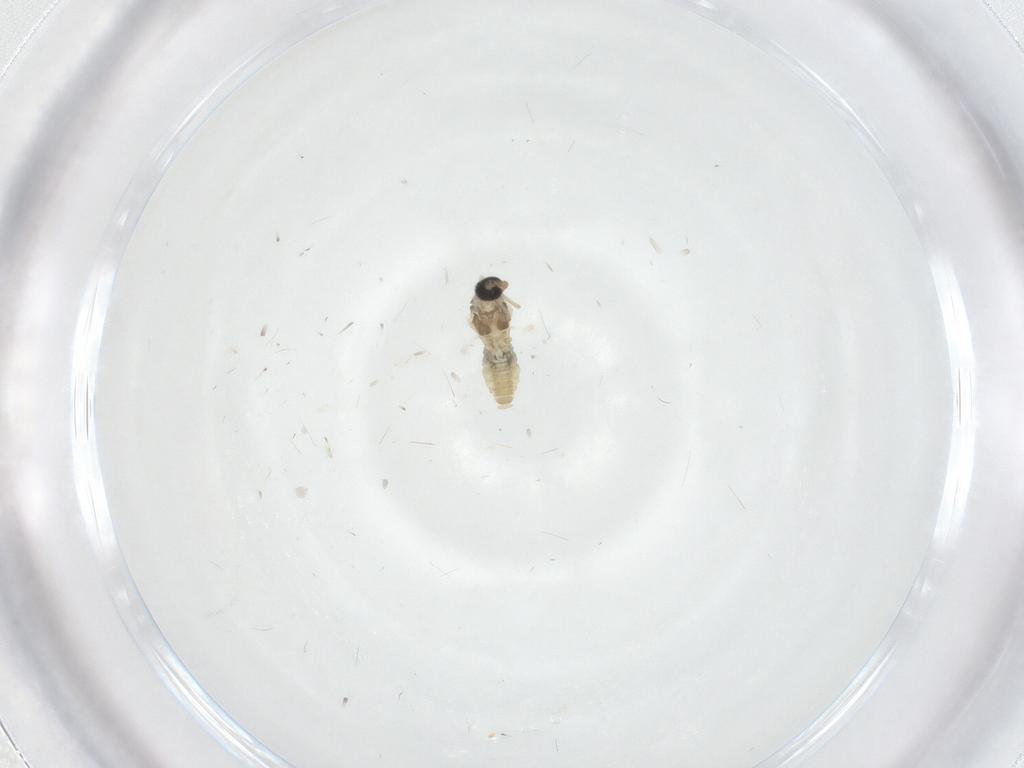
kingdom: Animalia
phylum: Arthropoda
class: Insecta
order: Diptera
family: Cecidomyiidae
